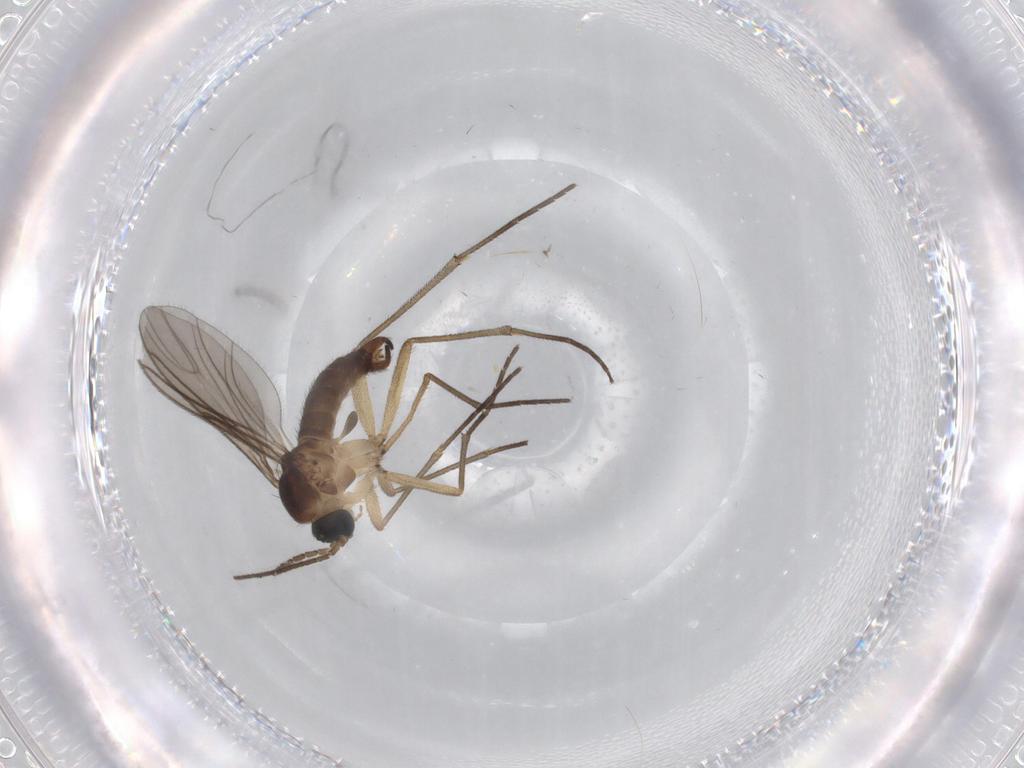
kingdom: Animalia
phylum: Arthropoda
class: Insecta
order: Diptera
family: Sciaridae
